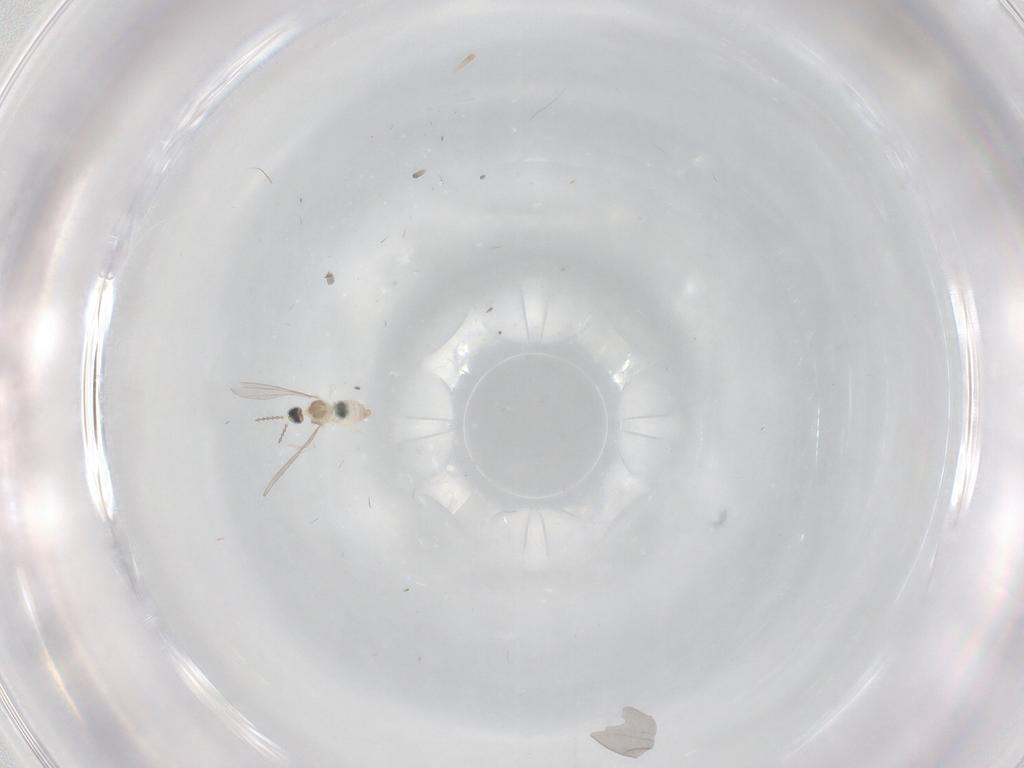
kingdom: Animalia
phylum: Arthropoda
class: Insecta
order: Diptera
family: Cecidomyiidae
